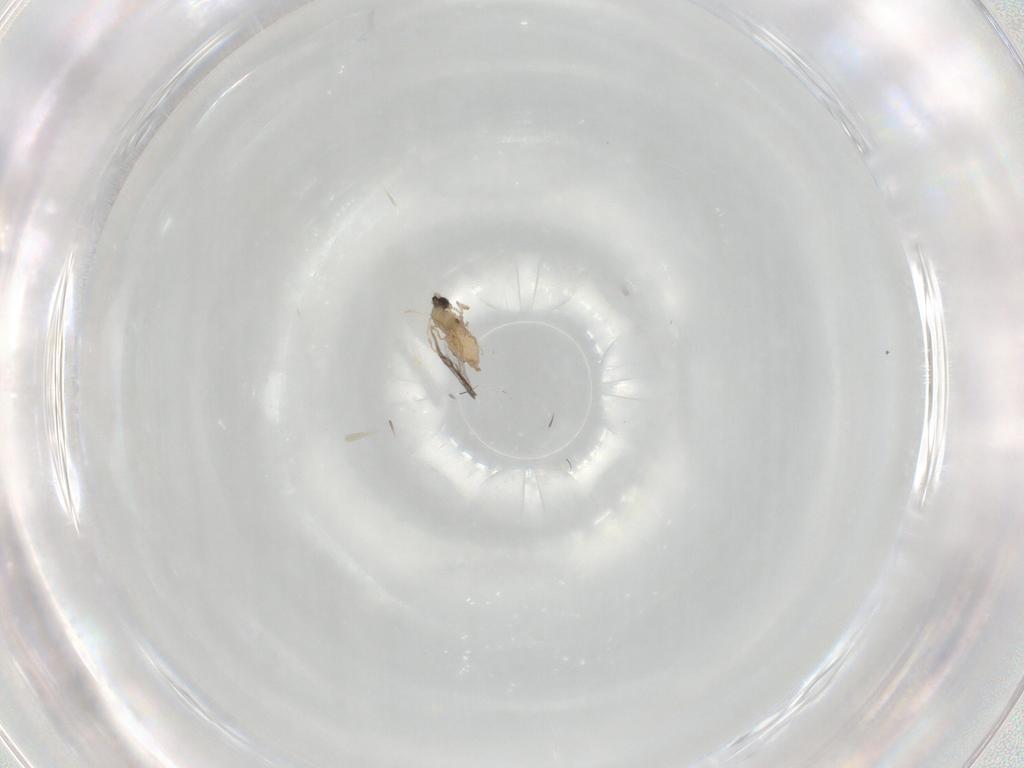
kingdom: Animalia
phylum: Arthropoda
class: Insecta
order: Diptera
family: Cecidomyiidae
